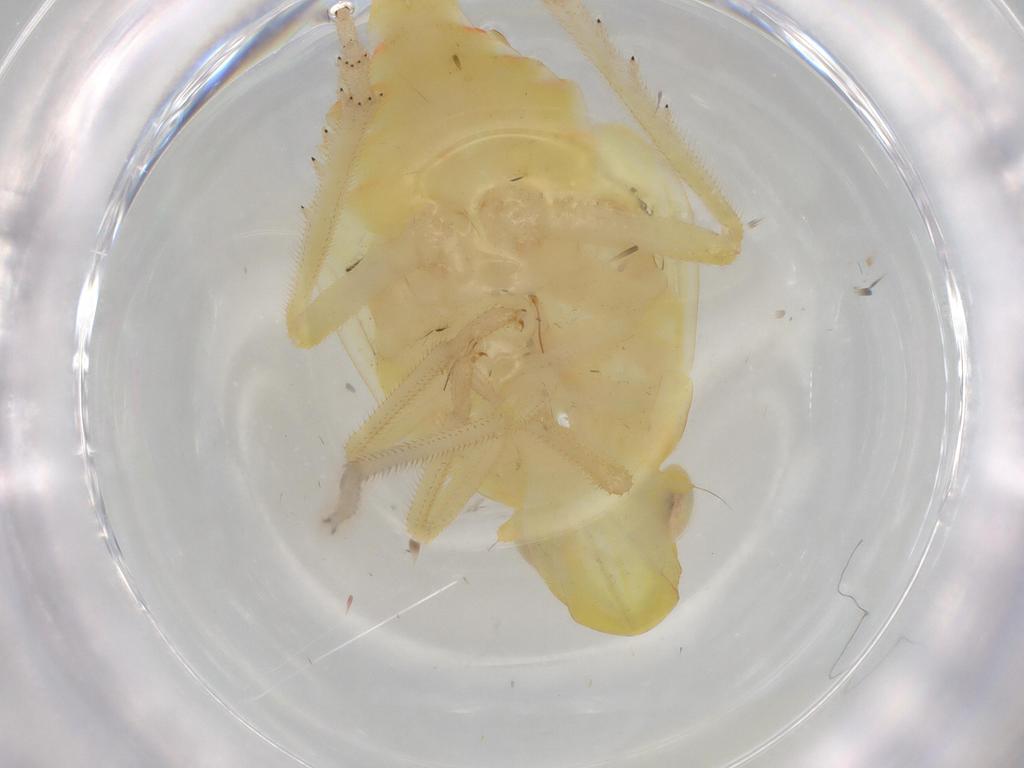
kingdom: Animalia
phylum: Arthropoda
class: Insecta
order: Hemiptera
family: Tropiduchidae
